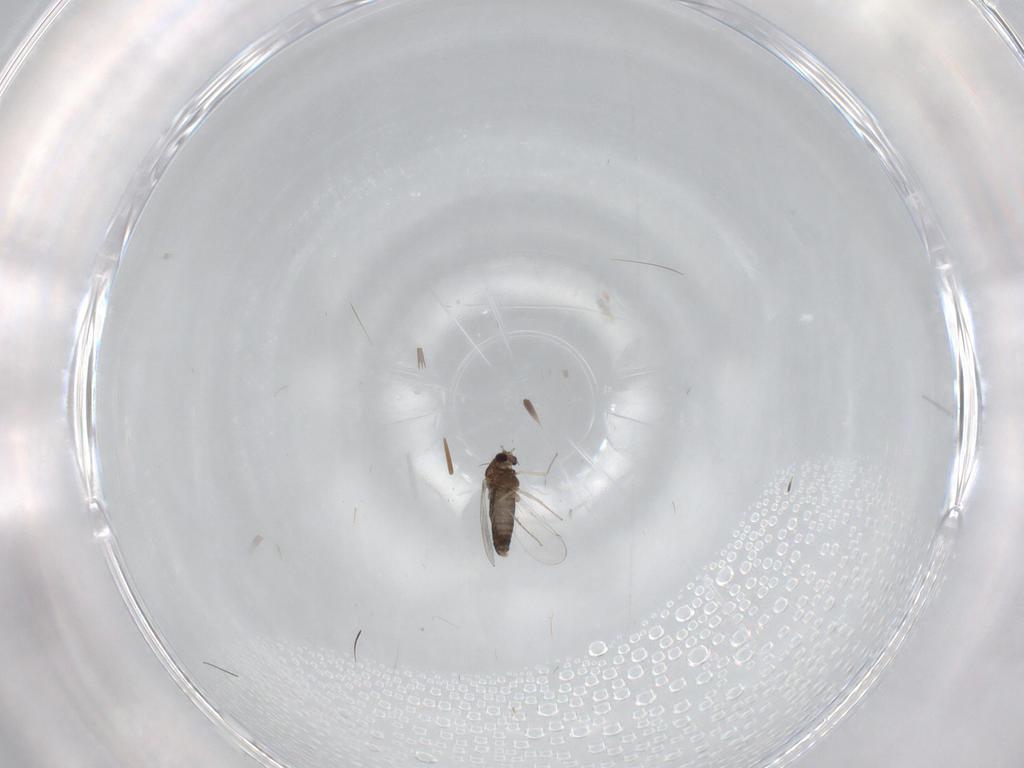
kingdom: Animalia
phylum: Arthropoda
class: Insecta
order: Diptera
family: Chironomidae
